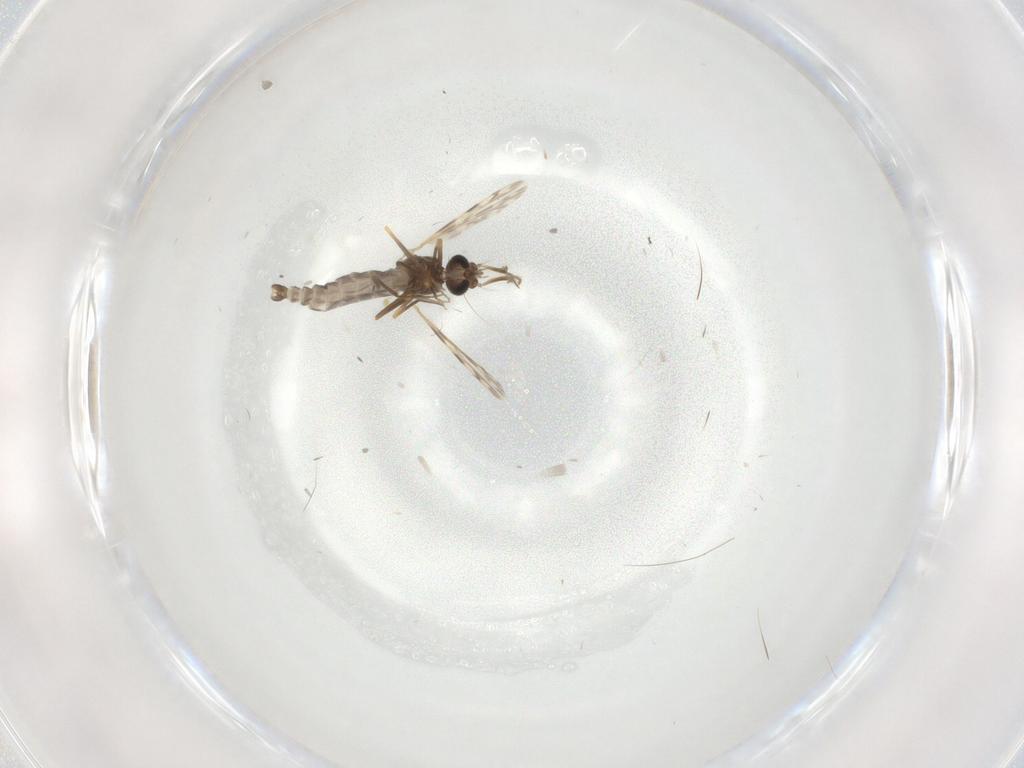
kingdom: Animalia
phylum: Arthropoda
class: Insecta
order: Diptera
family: Ceratopogonidae
